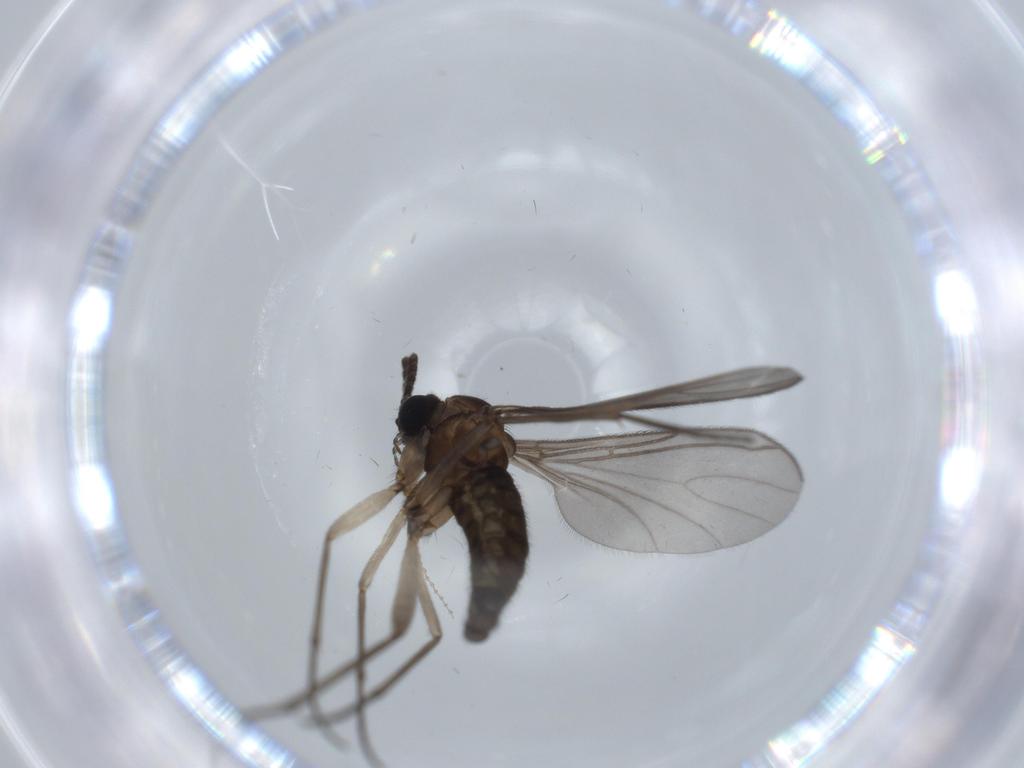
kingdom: Animalia
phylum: Arthropoda
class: Insecta
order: Diptera
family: Sciaridae
